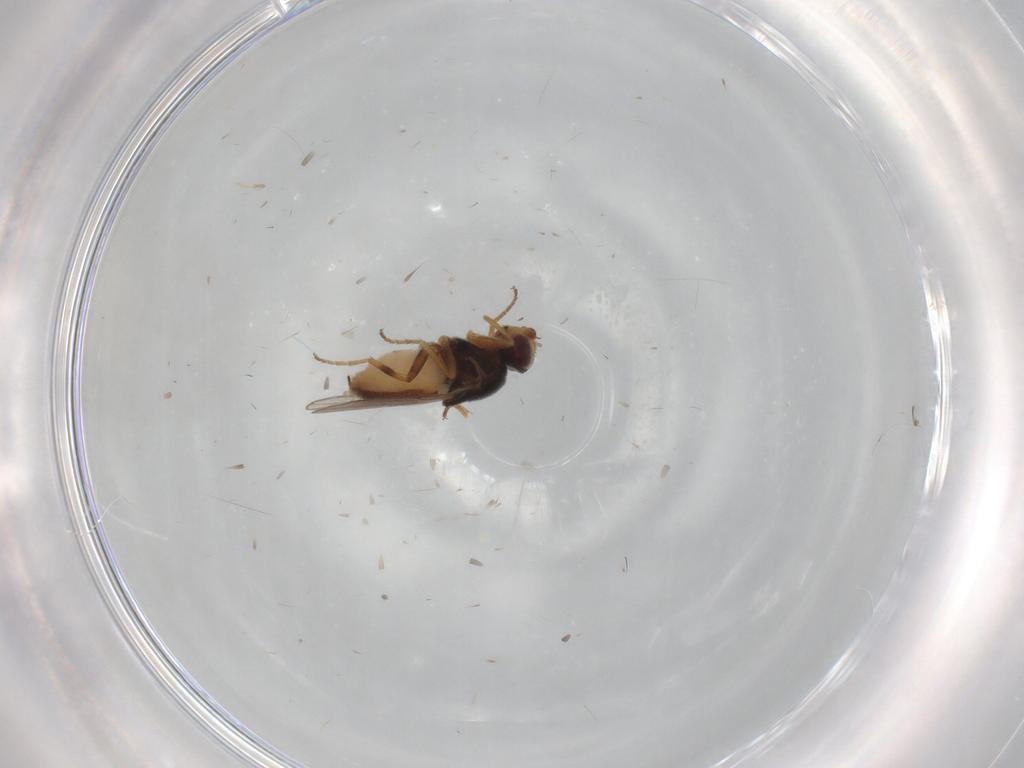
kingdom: Animalia
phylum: Arthropoda
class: Insecta
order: Diptera
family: Chloropidae
